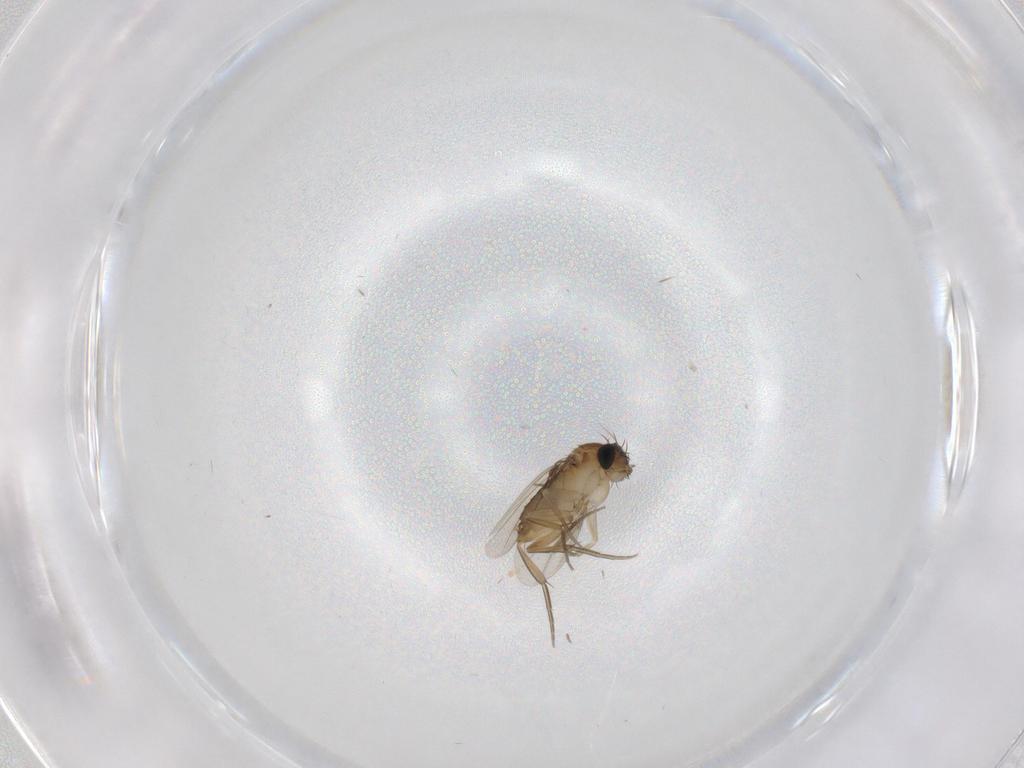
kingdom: Animalia
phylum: Arthropoda
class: Insecta
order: Diptera
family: Phoridae
